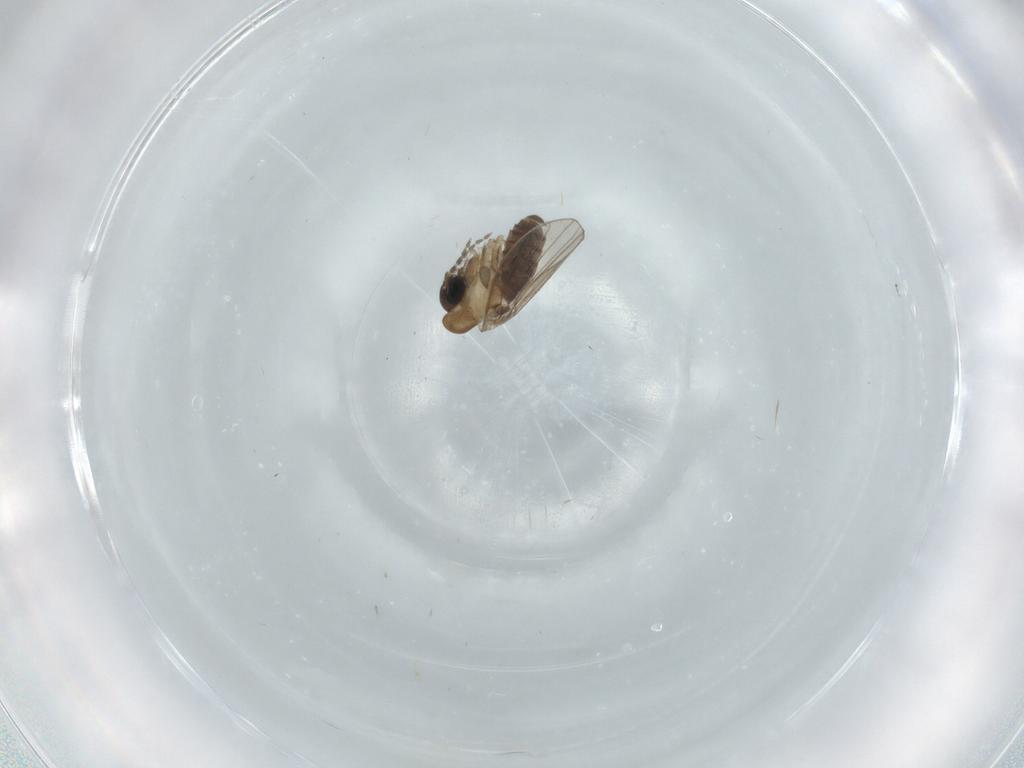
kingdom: Animalia
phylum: Arthropoda
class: Insecta
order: Diptera
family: Psychodidae
